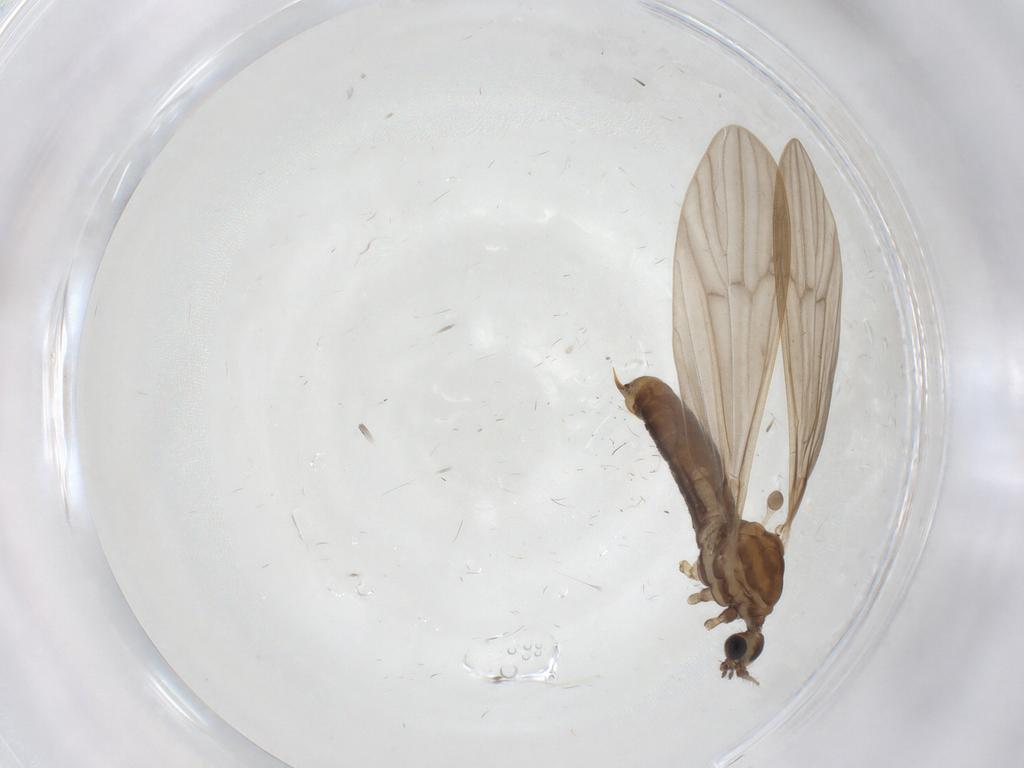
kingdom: Animalia
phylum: Arthropoda
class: Insecta
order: Diptera
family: Limoniidae
